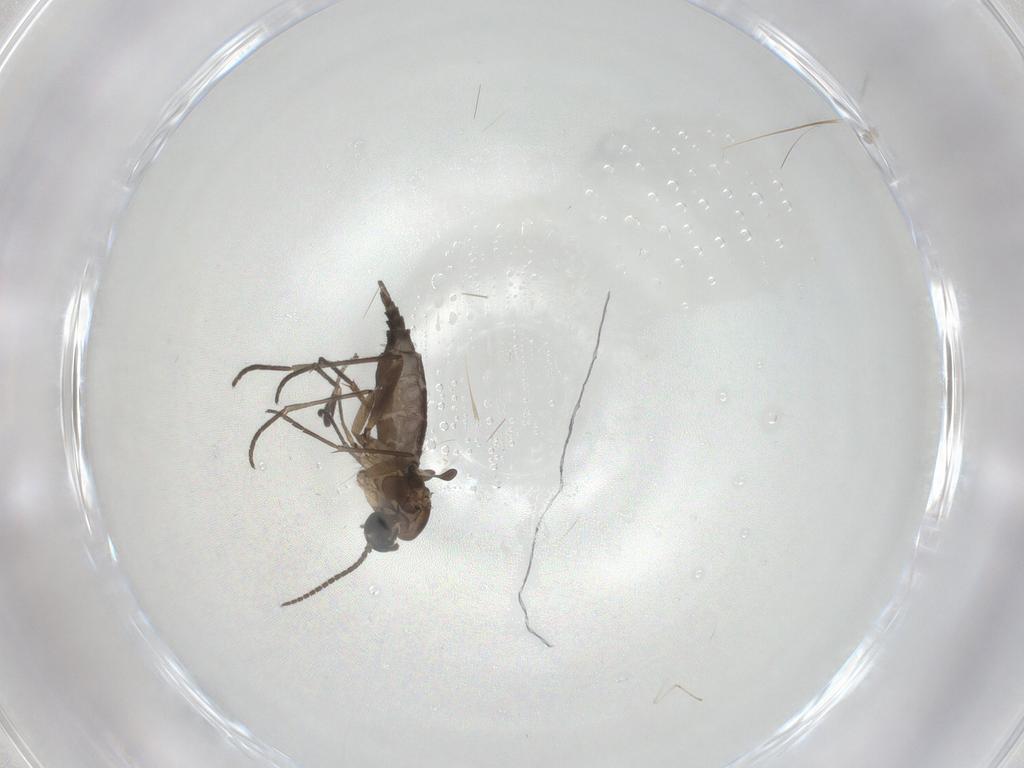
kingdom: Animalia
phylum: Arthropoda
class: Insecta
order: Diptera
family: Sciaridae
